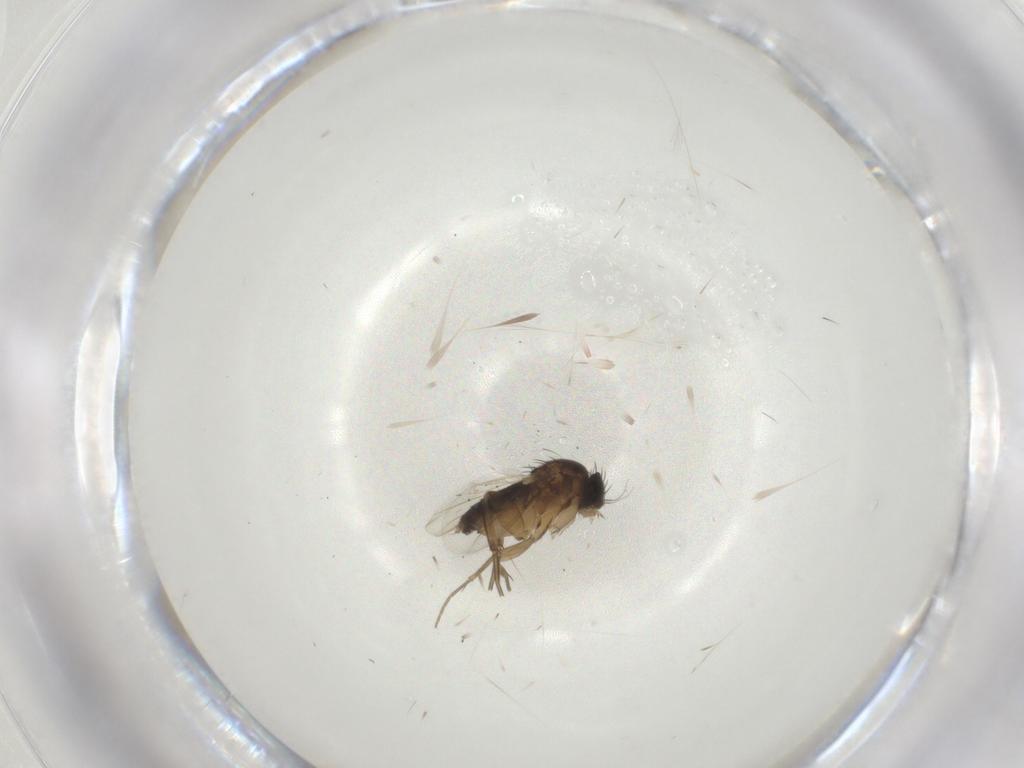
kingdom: Animalia
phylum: Arthropoda
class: Insecta
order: Diptera
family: Phoridae
